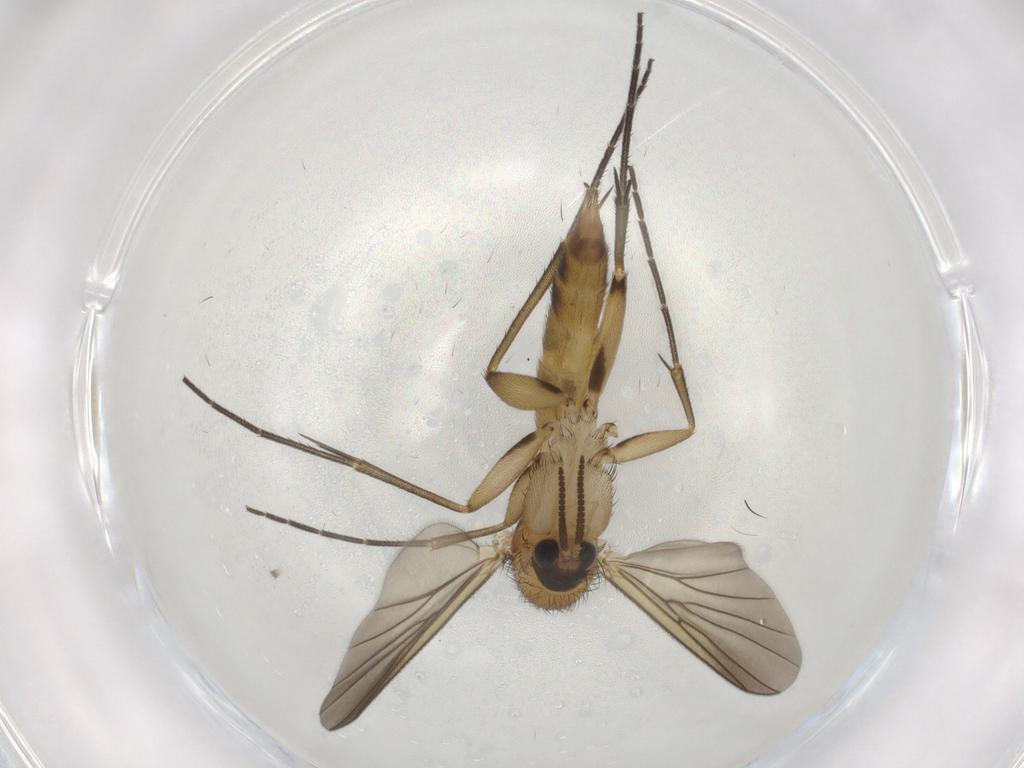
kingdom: Animalia
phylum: Arthropoda
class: Insecta
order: Diptera
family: Mycetophilidae
